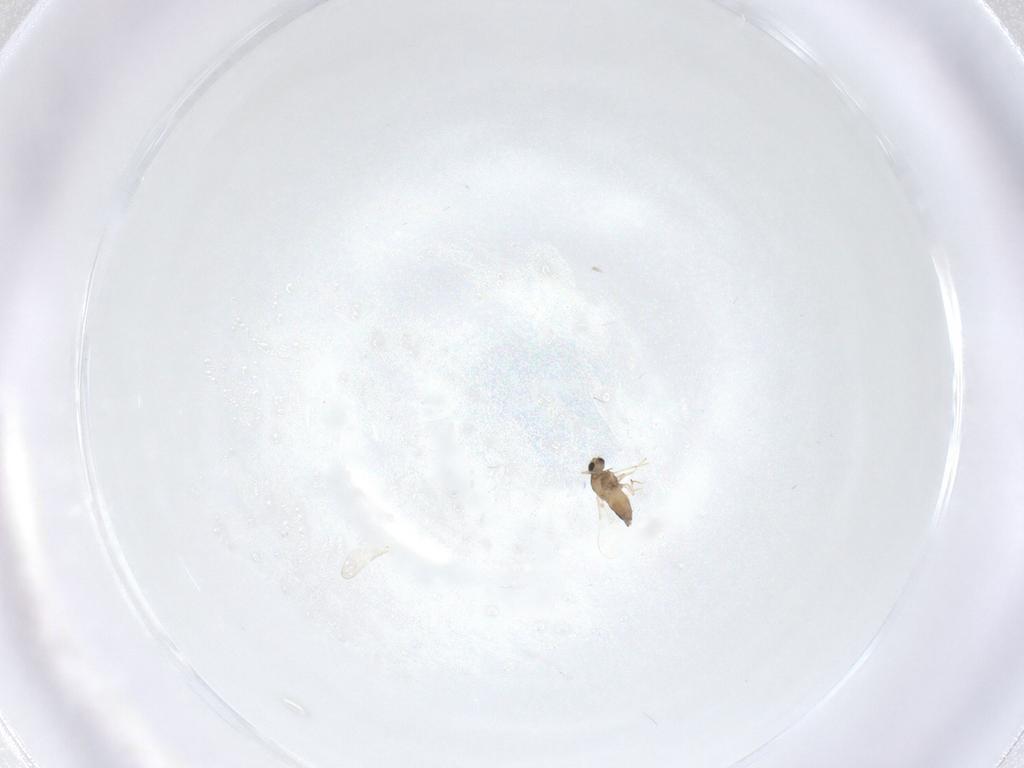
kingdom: Animalia
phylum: Arthropoda
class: Insecta
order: Diptera
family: Chironomidae
